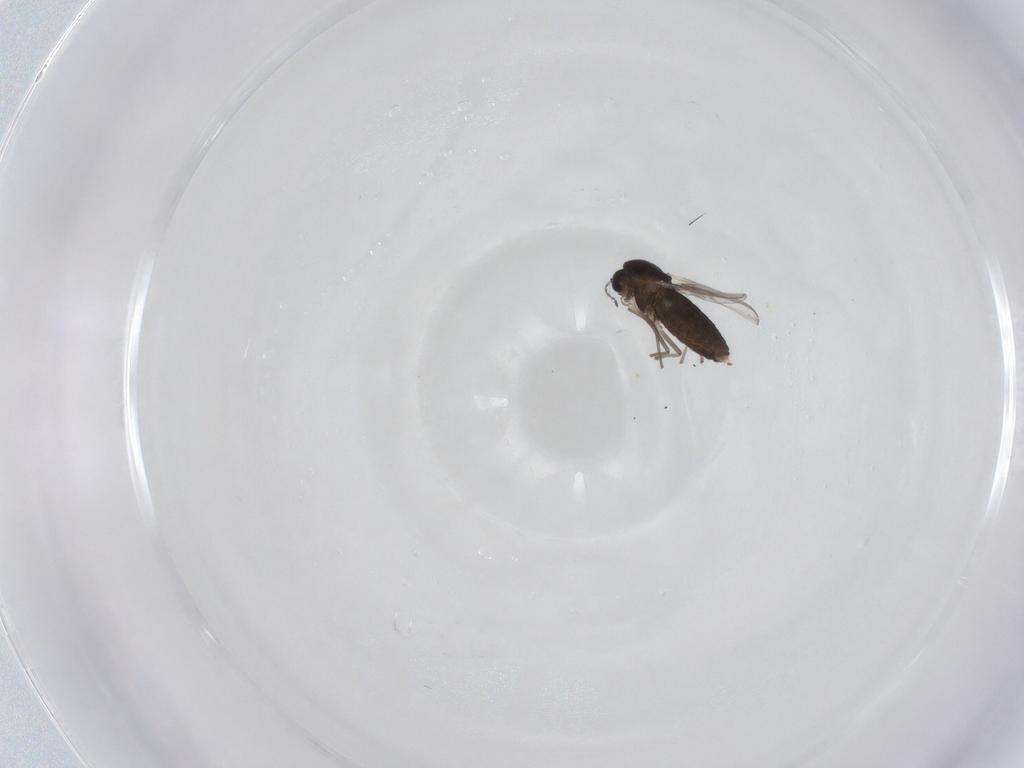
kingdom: Animalia
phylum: Arthropoda
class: Insecta
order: Diptera
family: Chironomidae
